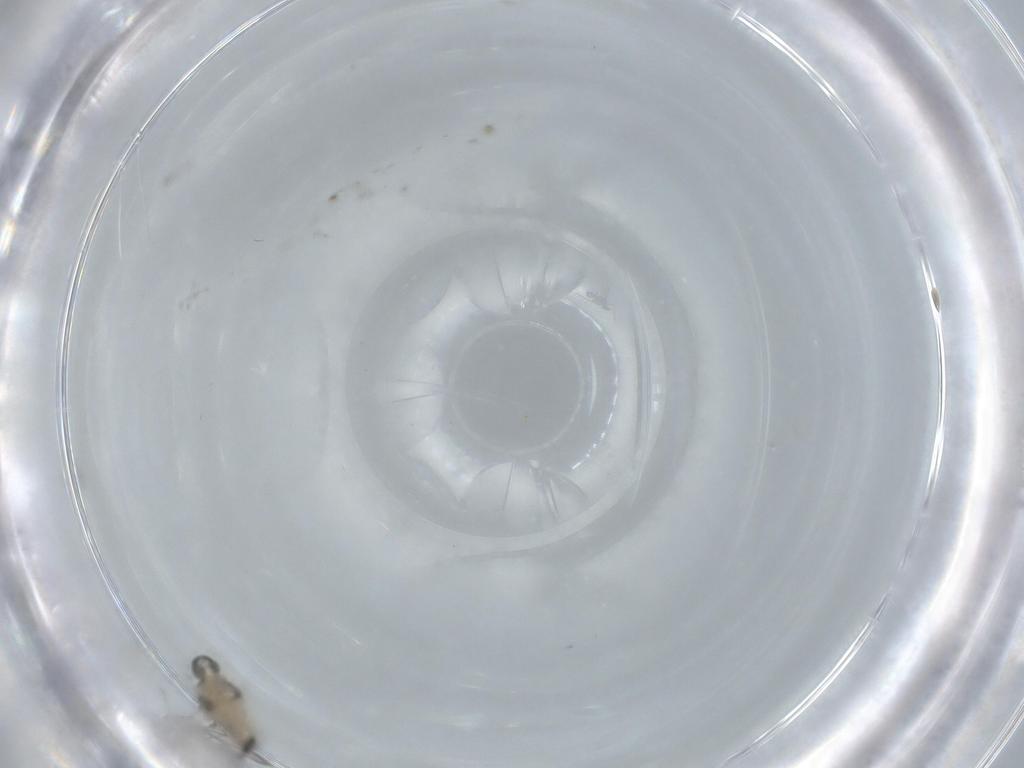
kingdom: Animalia
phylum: Arthropoda
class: Insecta
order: Diptera
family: Cecidomyiidae
